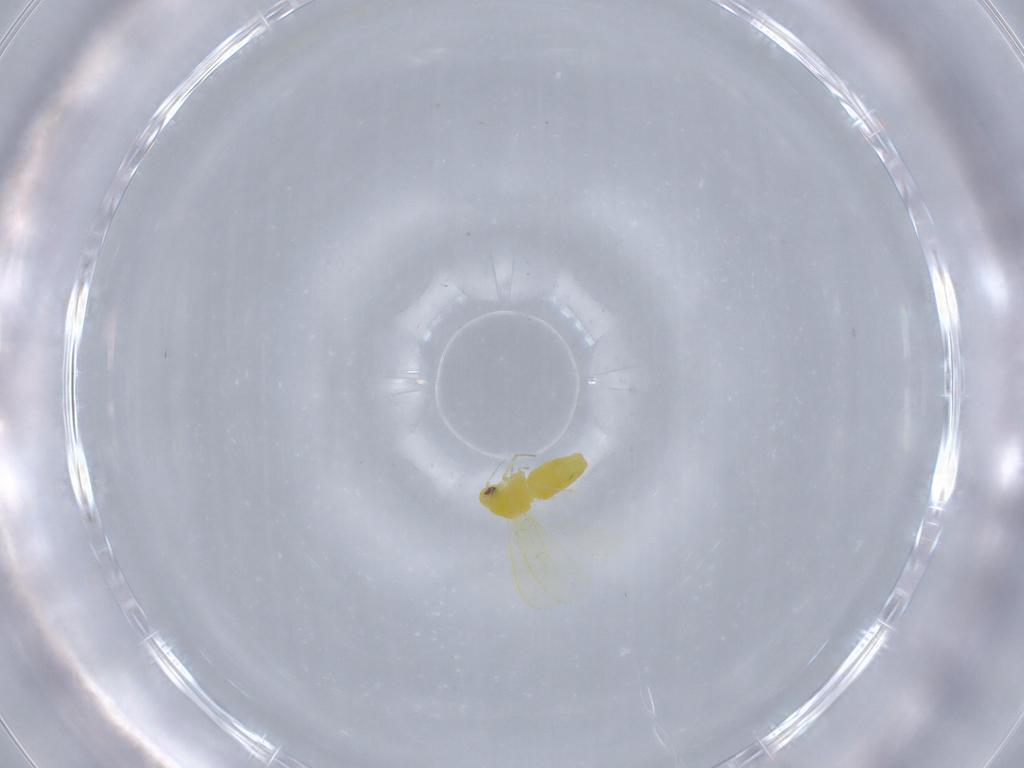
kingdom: Animalia
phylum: Arthropoda
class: Insecta
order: Hemiptera
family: Aleyrodidae
